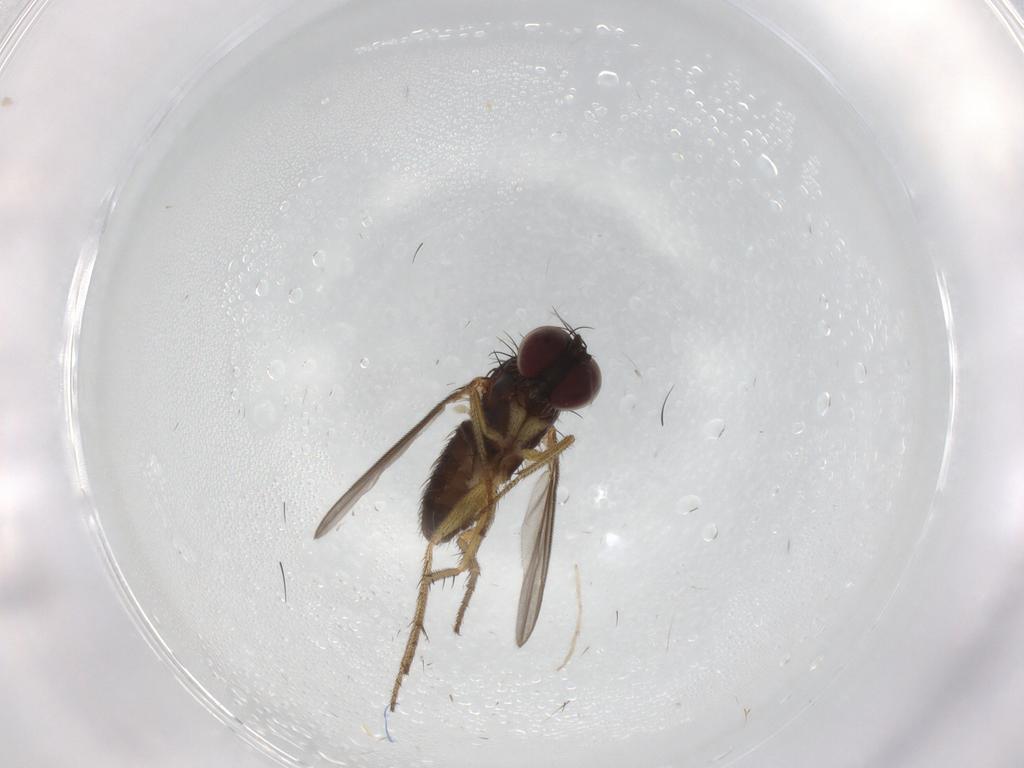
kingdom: Animalia
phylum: Arthropoda
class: Insecta
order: Diptera
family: Dolichopodidae
